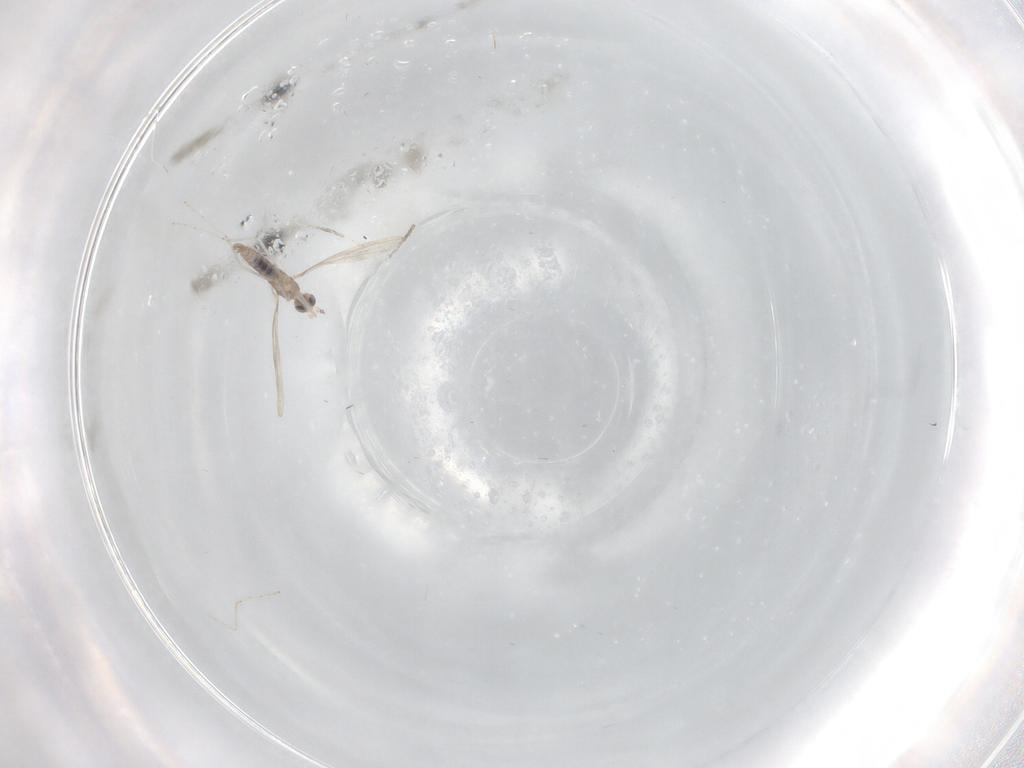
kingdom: Animalia
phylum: Arthropoda
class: Insecta
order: Diptera
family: Cecidomyiidae
